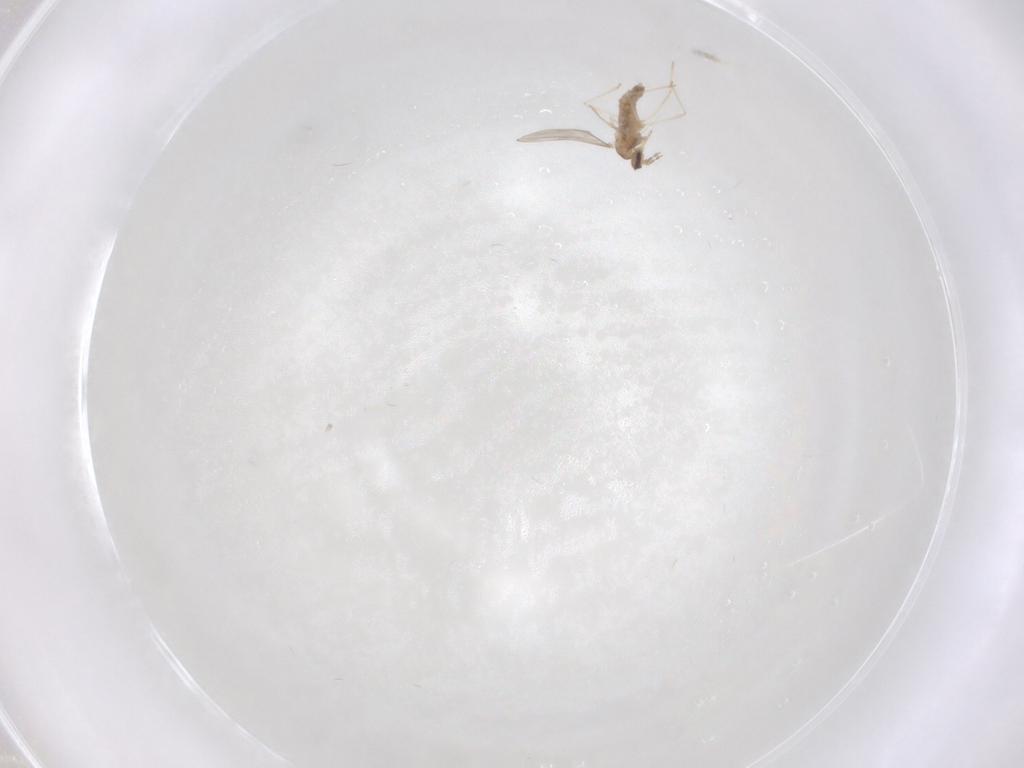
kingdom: Animalia
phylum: Arthropoda
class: Insecta
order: Diptera
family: Cecidomyiidae
